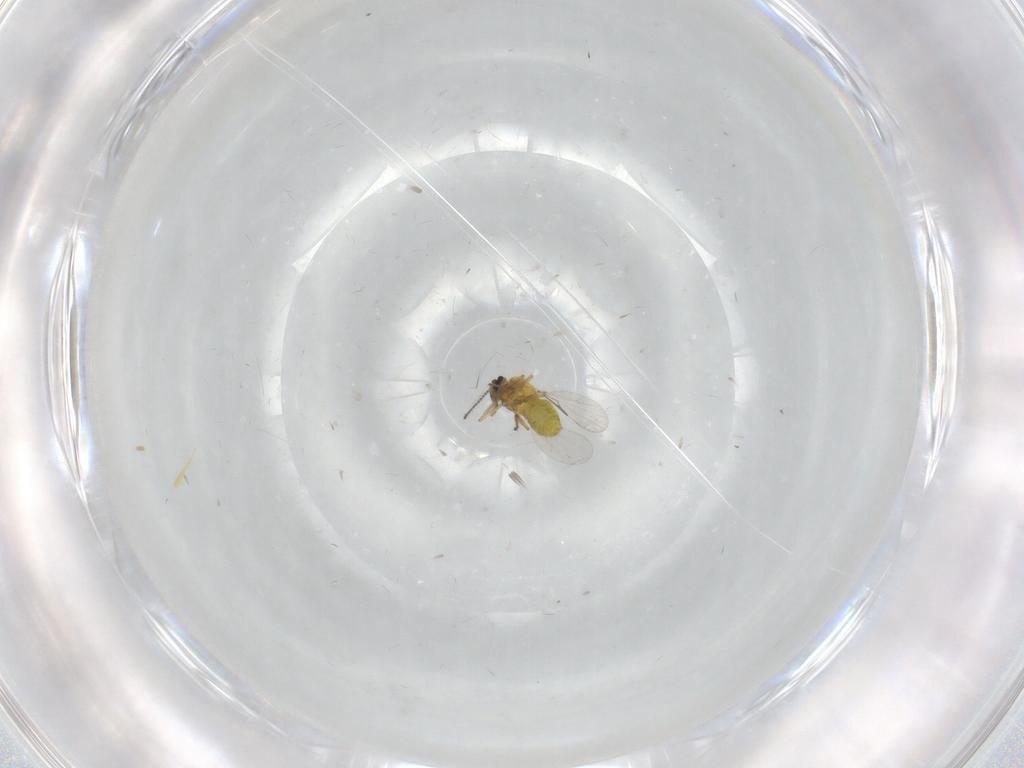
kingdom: Animalia
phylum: Arthropoda
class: Insecta
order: Diptera
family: Ceratopogonidae
